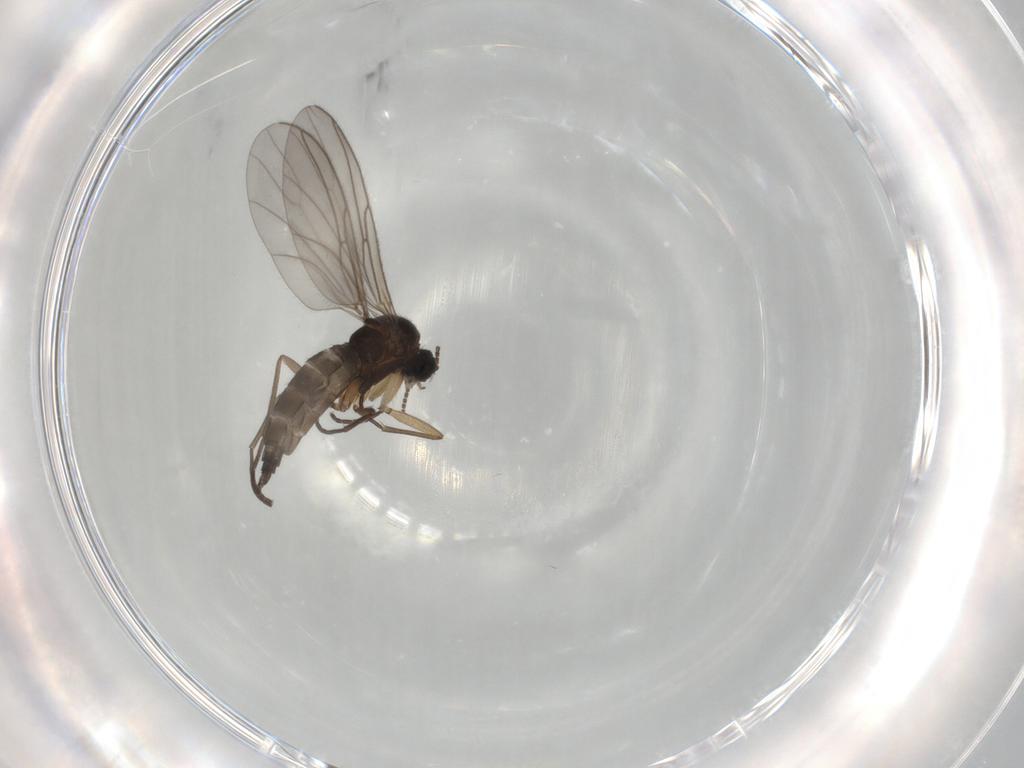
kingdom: Animalia
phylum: Arthropoda
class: Insecta
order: Diptera
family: Sciaridae
